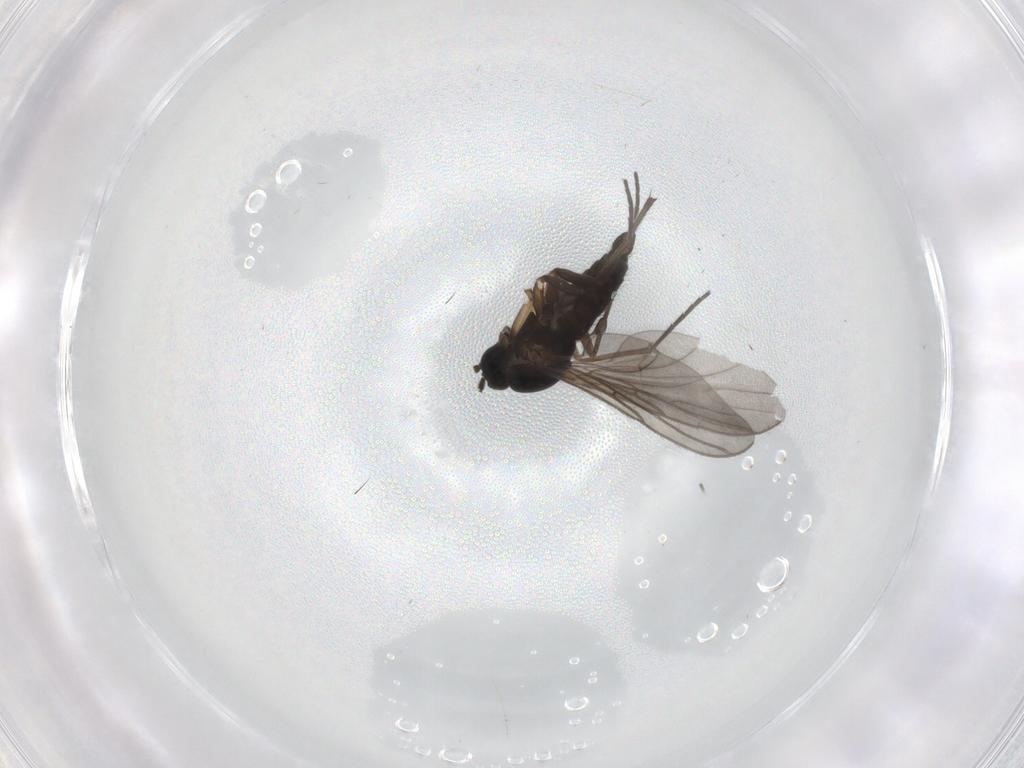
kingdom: Animalia
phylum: Arthropoda
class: Insecta
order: Diptera
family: Sciaridae
